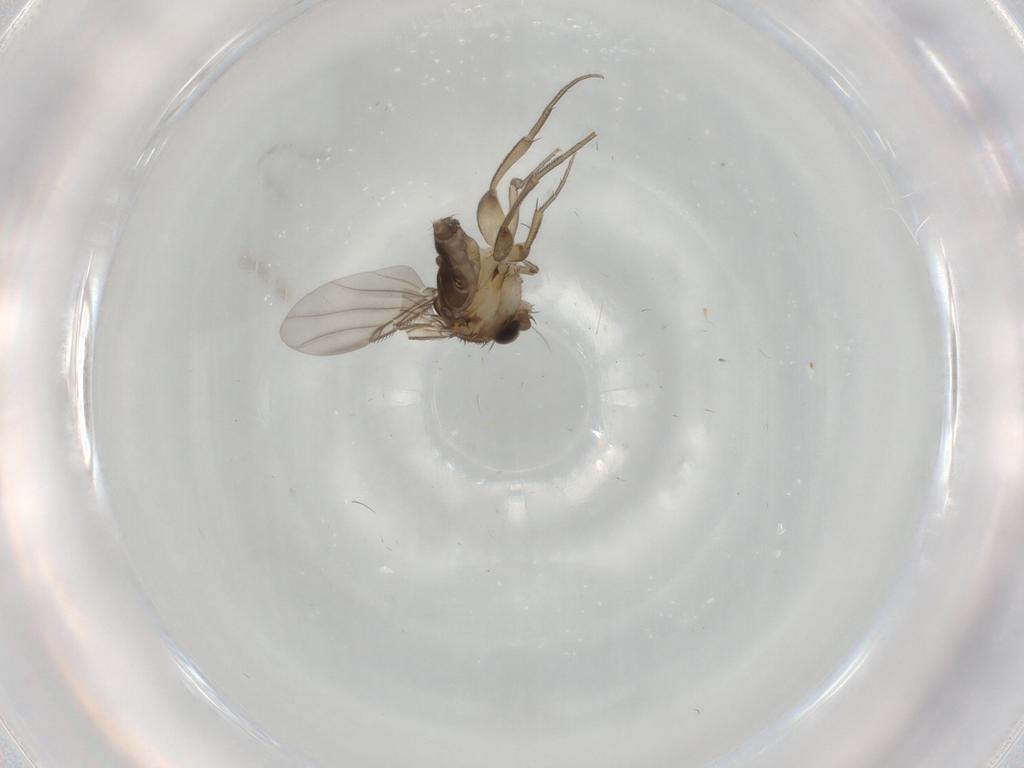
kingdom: Animalia
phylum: Arthropoda
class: Insecta
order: Diptera
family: Phoridae
